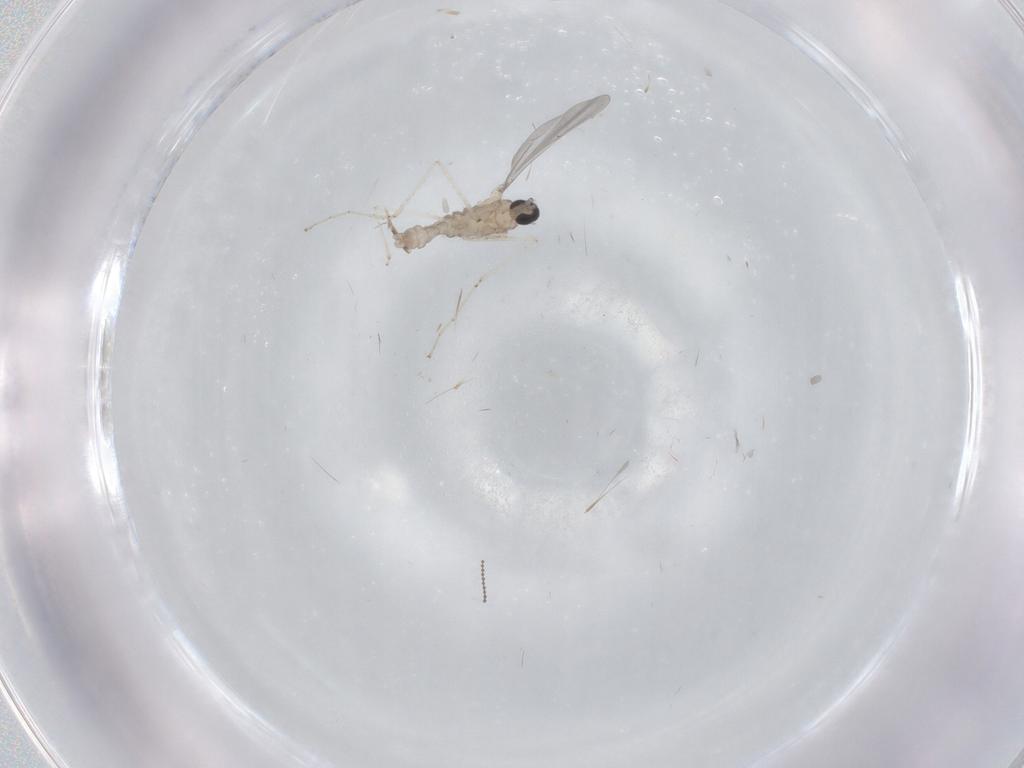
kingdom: Animalia
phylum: Arthropoda
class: Insecta
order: Diptera
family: Cecidomyiidae
